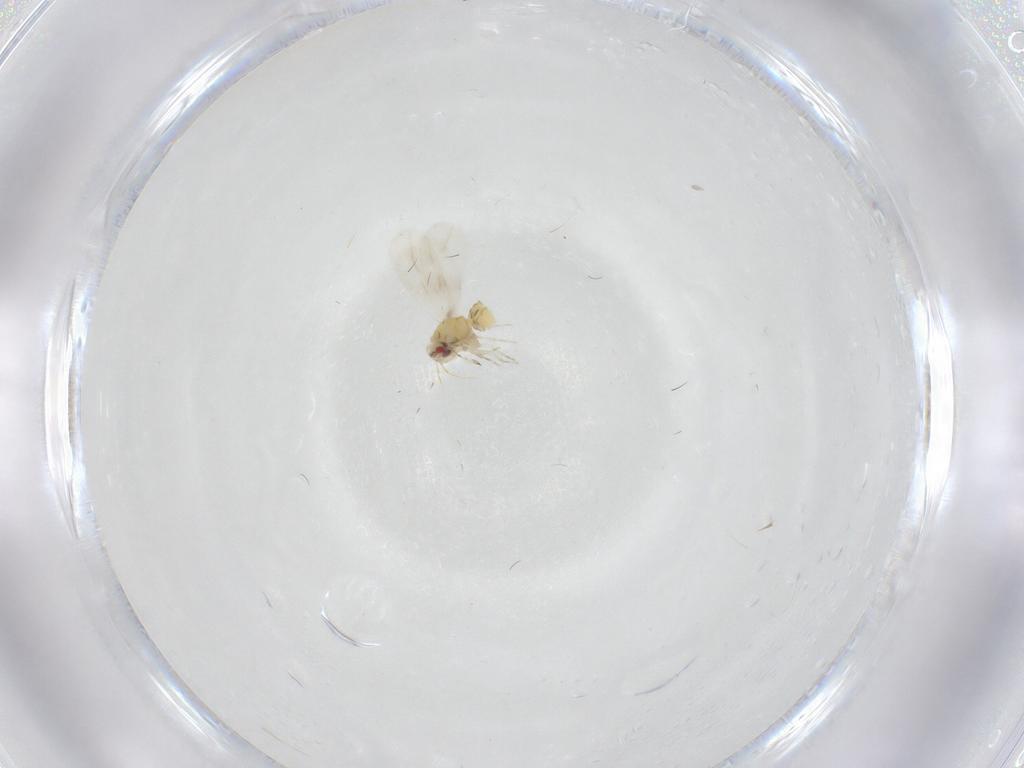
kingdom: Animalia
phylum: Arthropoda
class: Insecta
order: Hemiptera
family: Aleyrodidae
